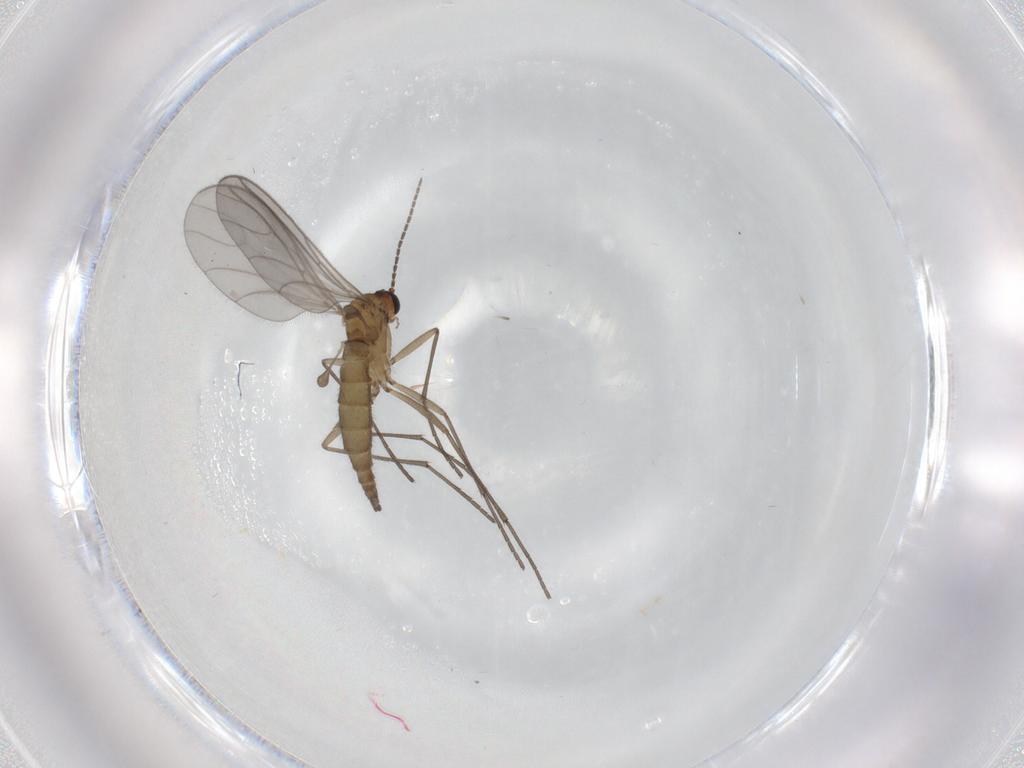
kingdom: Animalia
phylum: Arthropoda
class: Insecta
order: Diptera
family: Sciaridae
